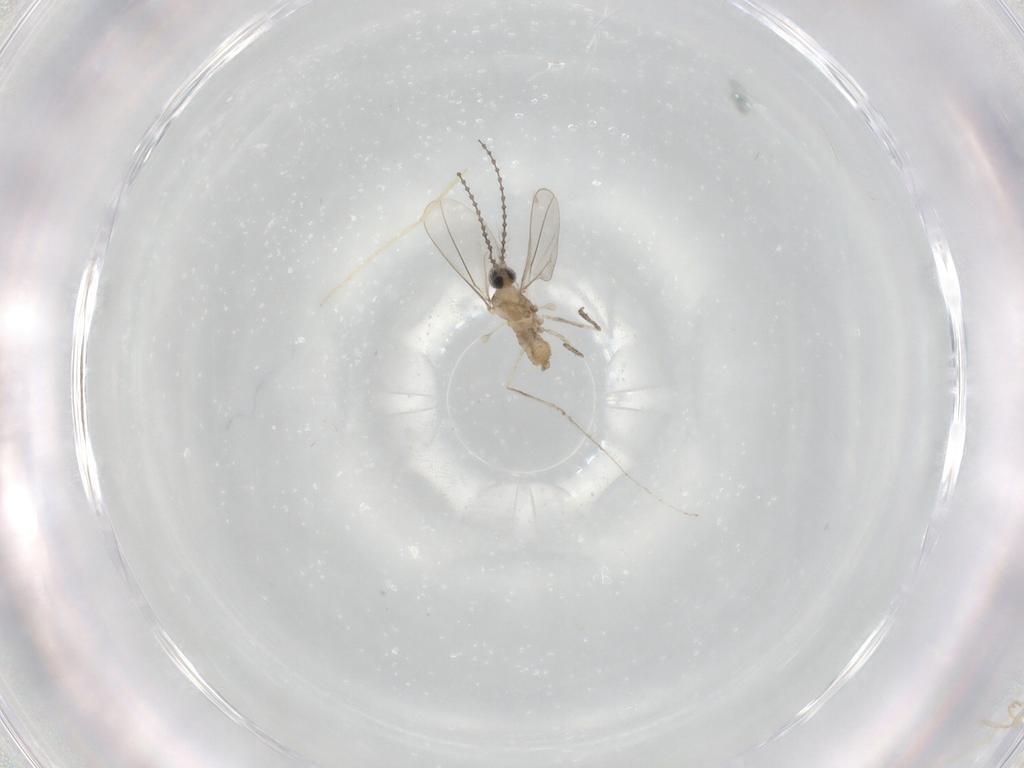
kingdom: Animalia
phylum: Arthropoda
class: Insecta
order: Diptera
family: Cecidomyiidae
